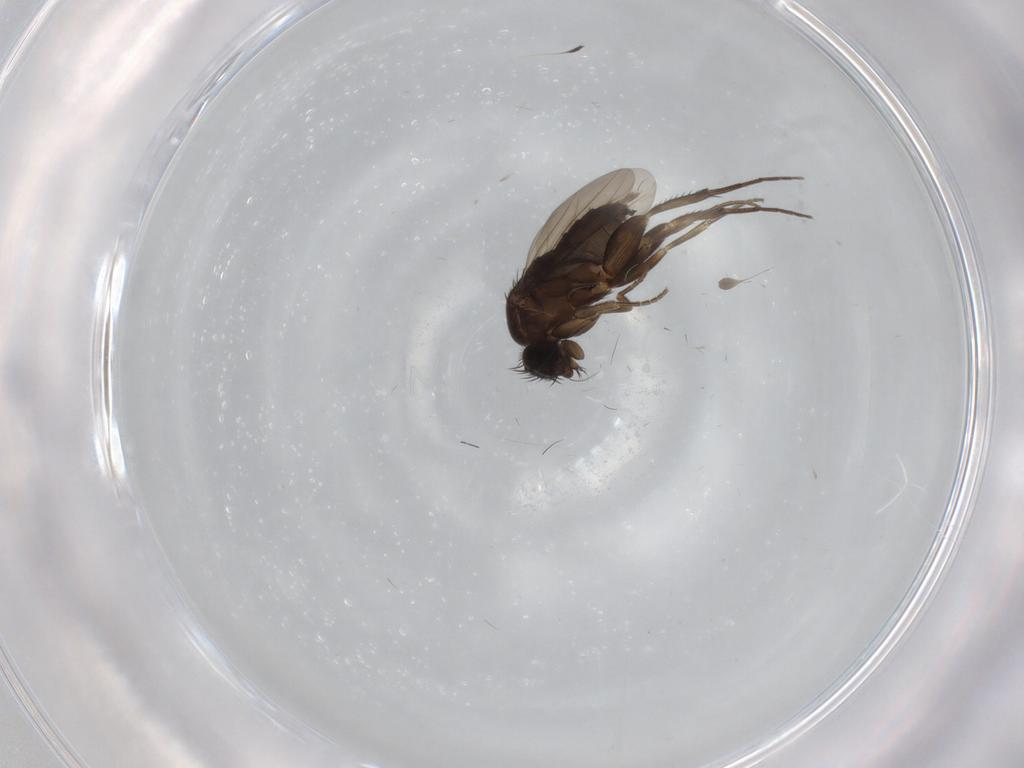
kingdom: Animalia
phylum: Arthropoda
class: Insecta
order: Diptera
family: Phoridae
